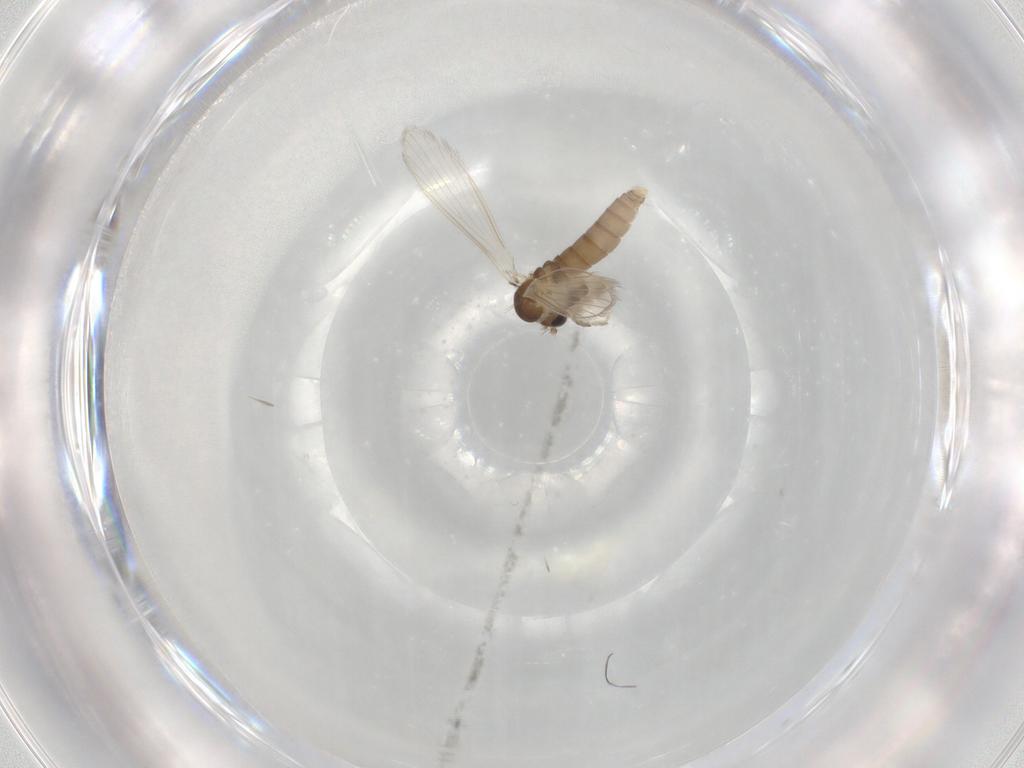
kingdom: Animalia
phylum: Arthropoda
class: Insecta
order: Diptera
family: Psychodidae
